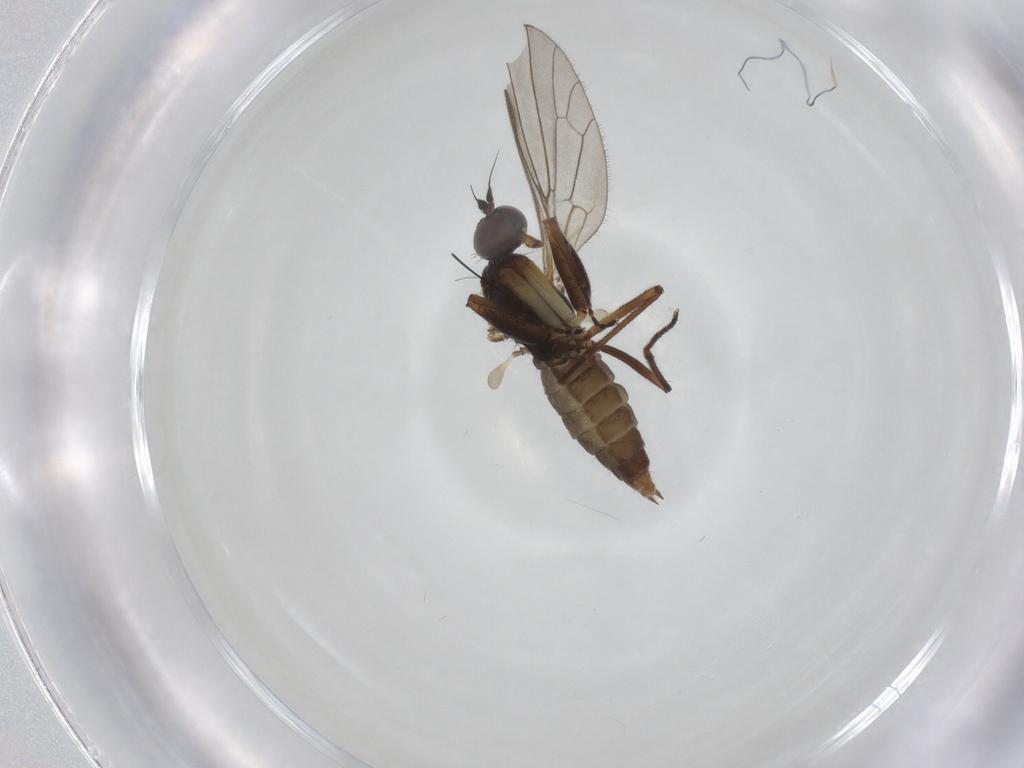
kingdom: Animalia
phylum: Arthropoda
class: Insecta
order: Diptera
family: Empididae
